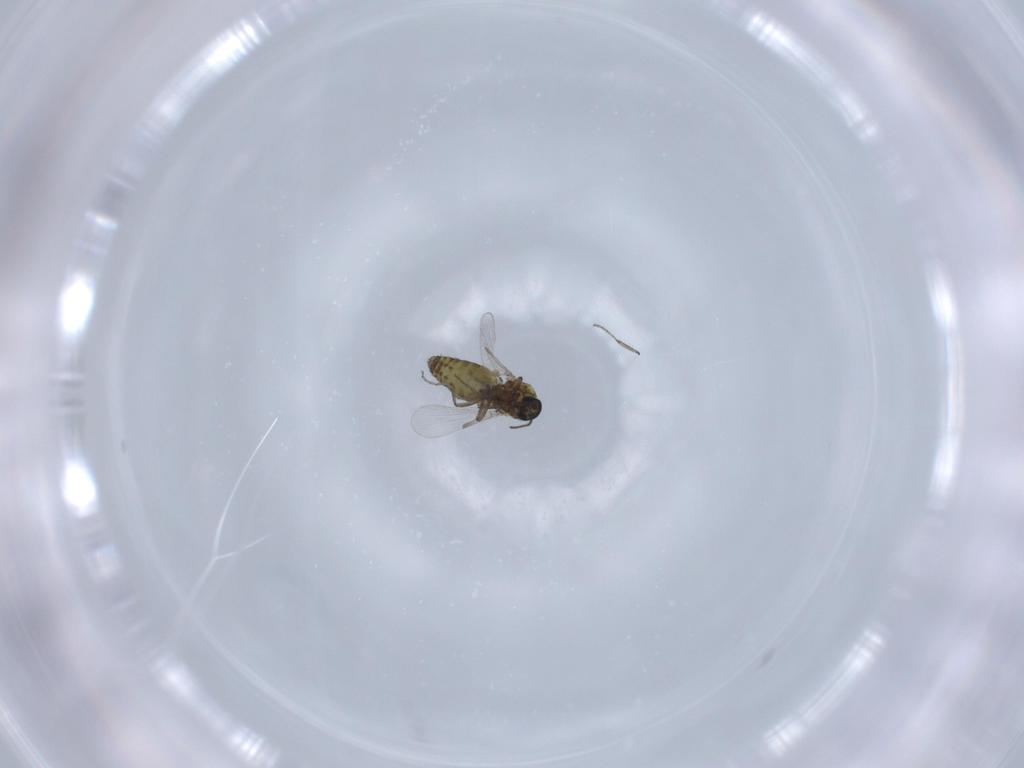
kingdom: Animalia
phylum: Arthropoda
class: Insecta
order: Diptera
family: Ceratopogonidae
